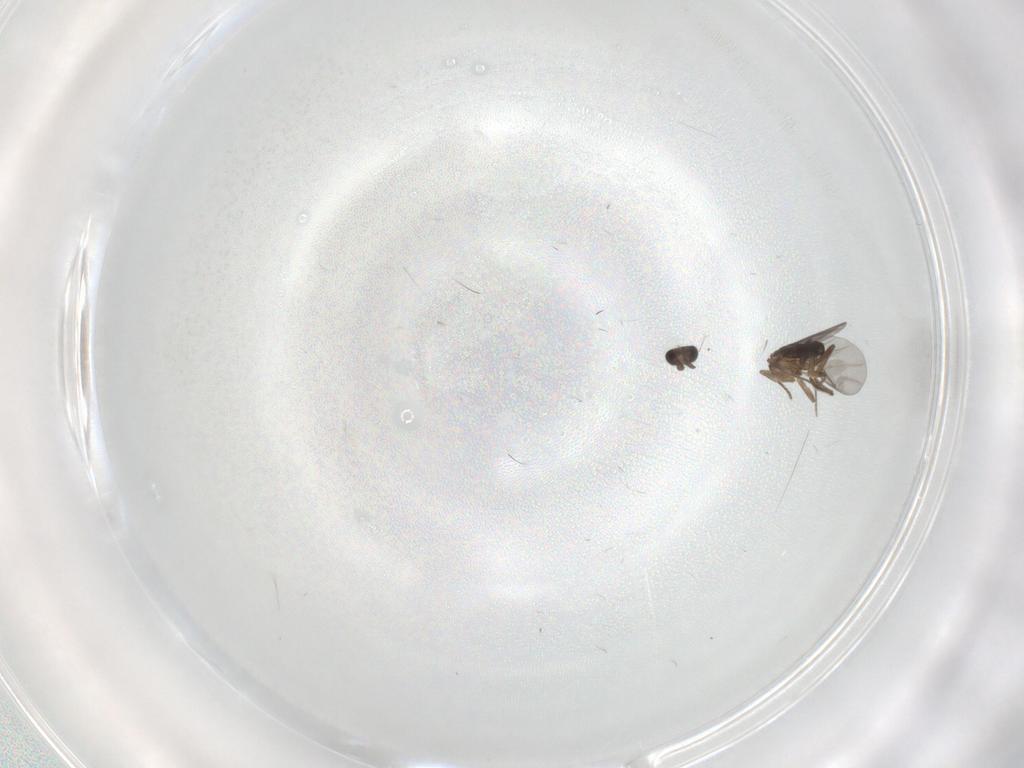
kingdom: Animalia
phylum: Arthropoda
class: Insecta
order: Diptera
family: Cecidomyiidae
